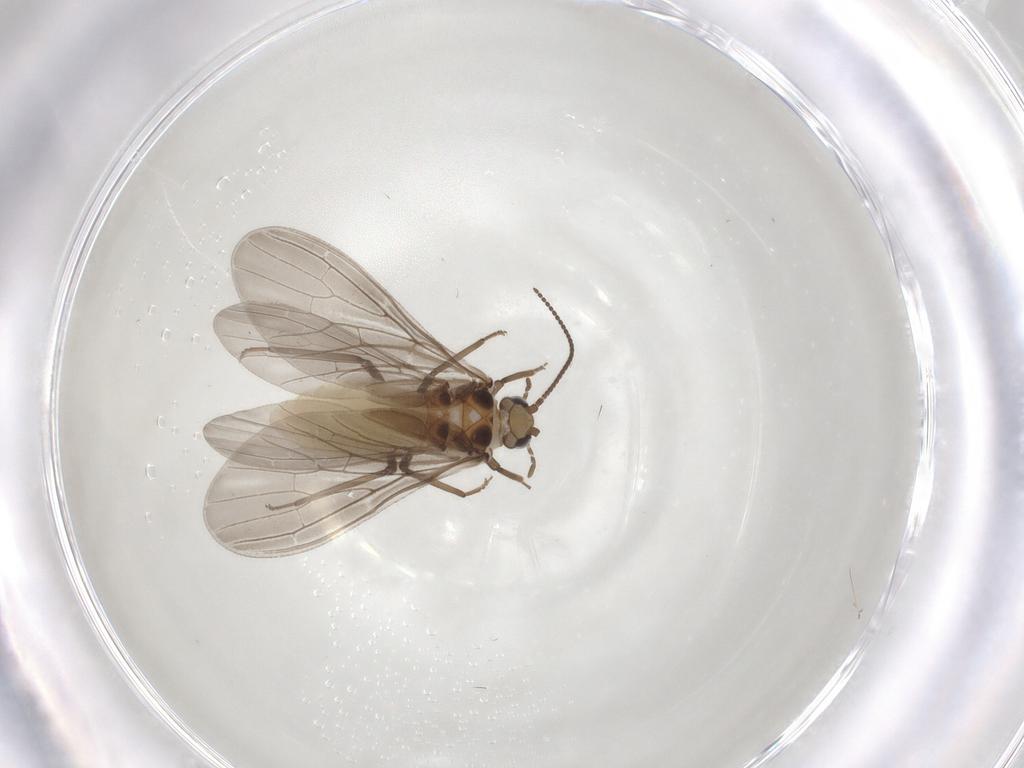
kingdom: Animalia
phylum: Arthropoda
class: Insecta
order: Neuroptera
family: Coniopterygidae
